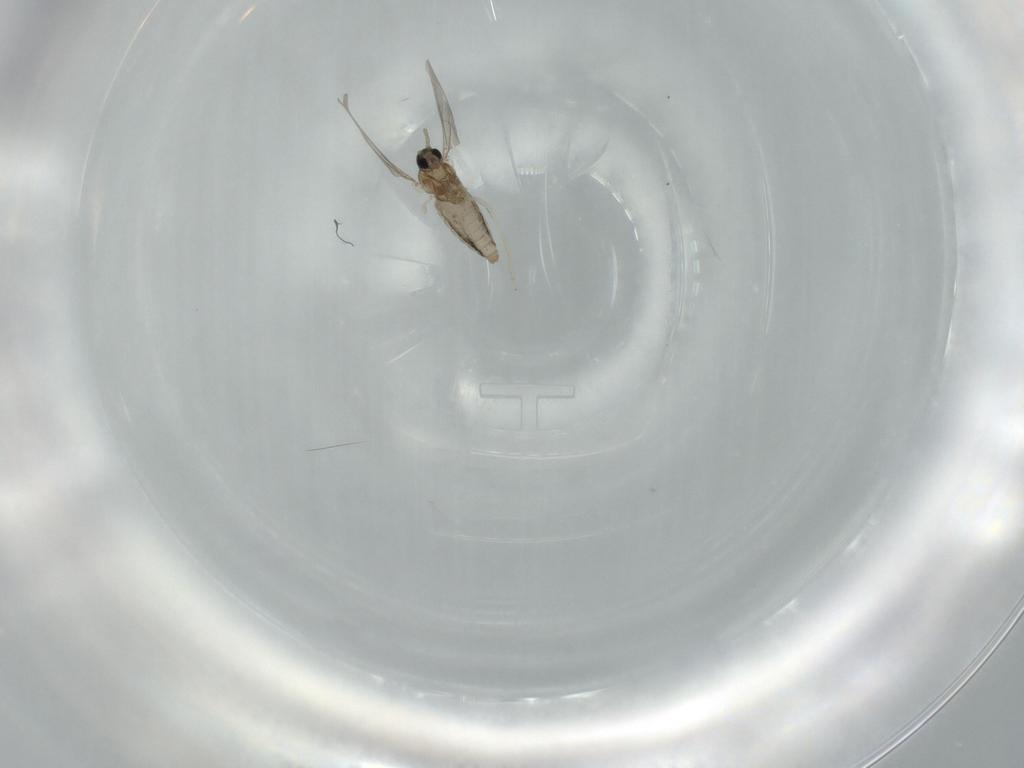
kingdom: Animalia
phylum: Arthropoda
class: Insecta
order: Diptera
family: Cecidomyiidae
